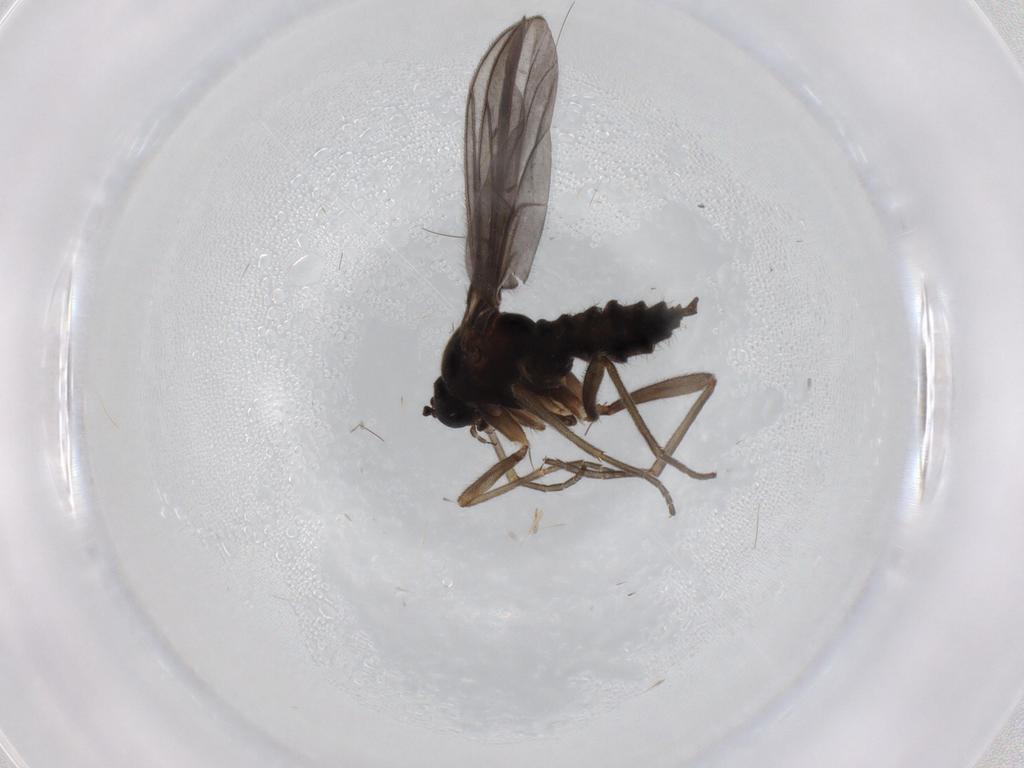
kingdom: Animalia
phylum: Arthropoda
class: Insecta
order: Diptera
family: Sciaridae
